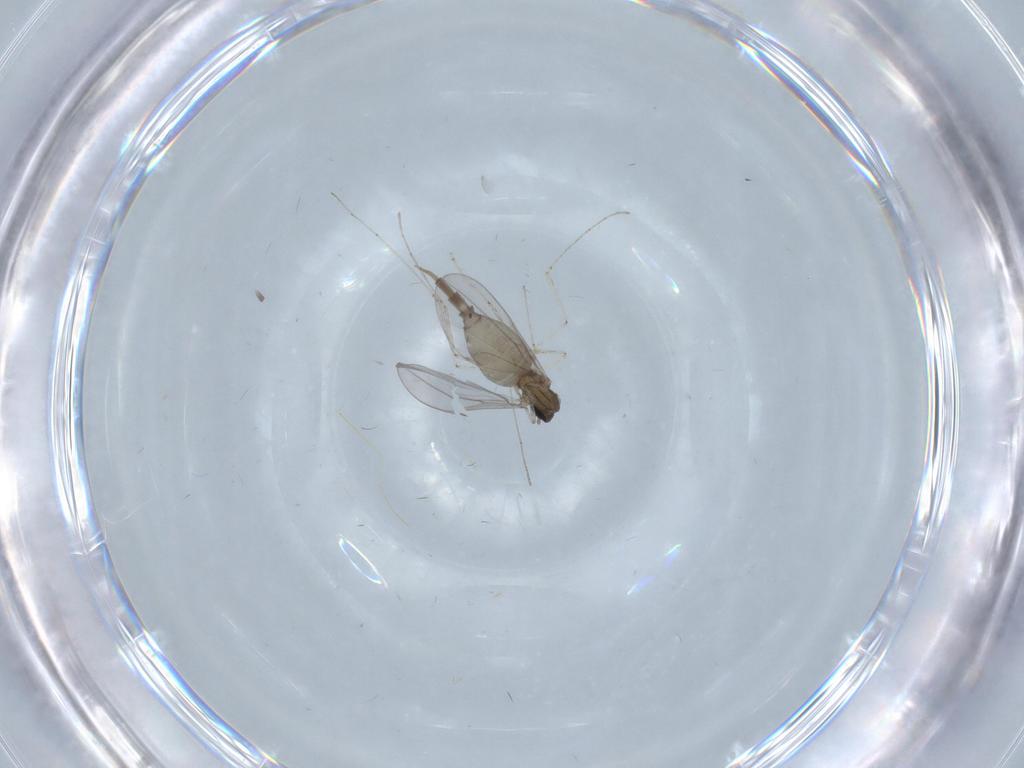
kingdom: Animalia
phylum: Arthropoda
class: Insecta
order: Diptera
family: Cecidomyiidae
